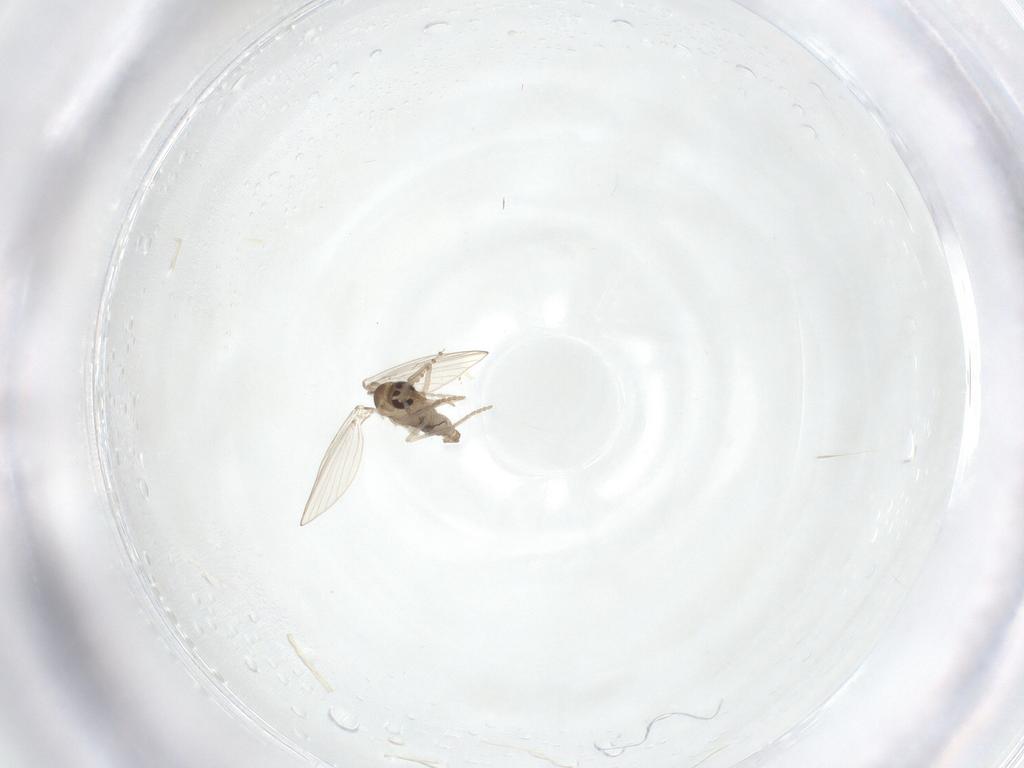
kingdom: Animalia
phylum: Arthropoda
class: Insecta
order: Diptera
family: Psychodidae
